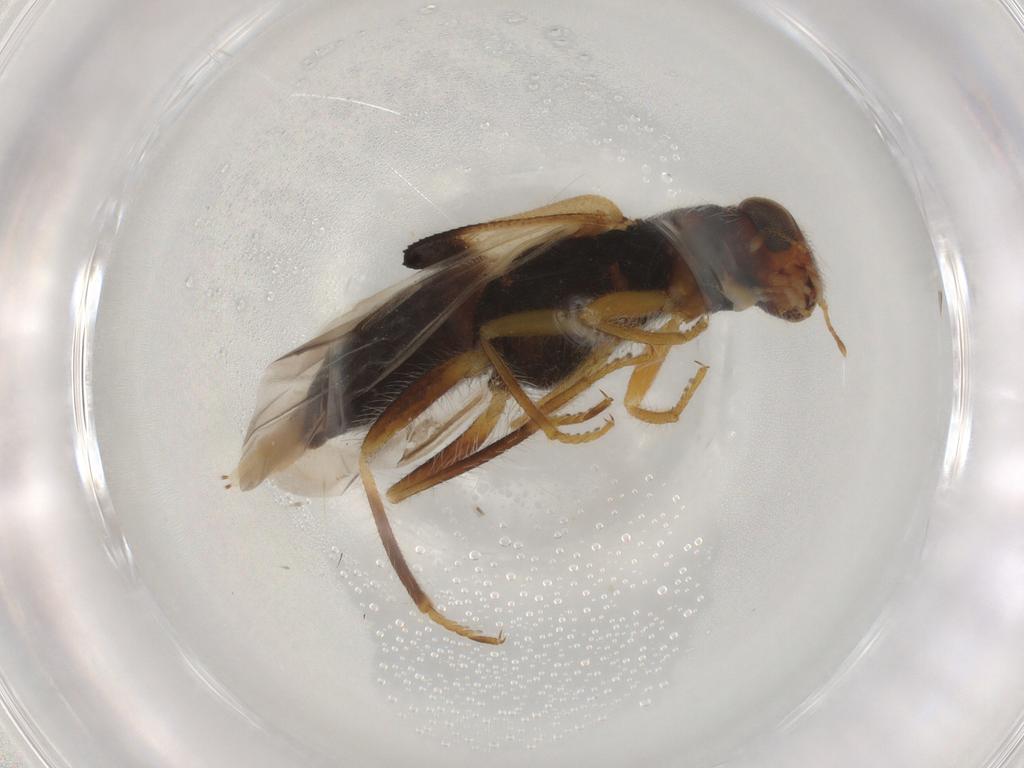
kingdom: Animalia
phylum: Arthropoda
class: Insecta
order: Coleoptera
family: Cleridae
